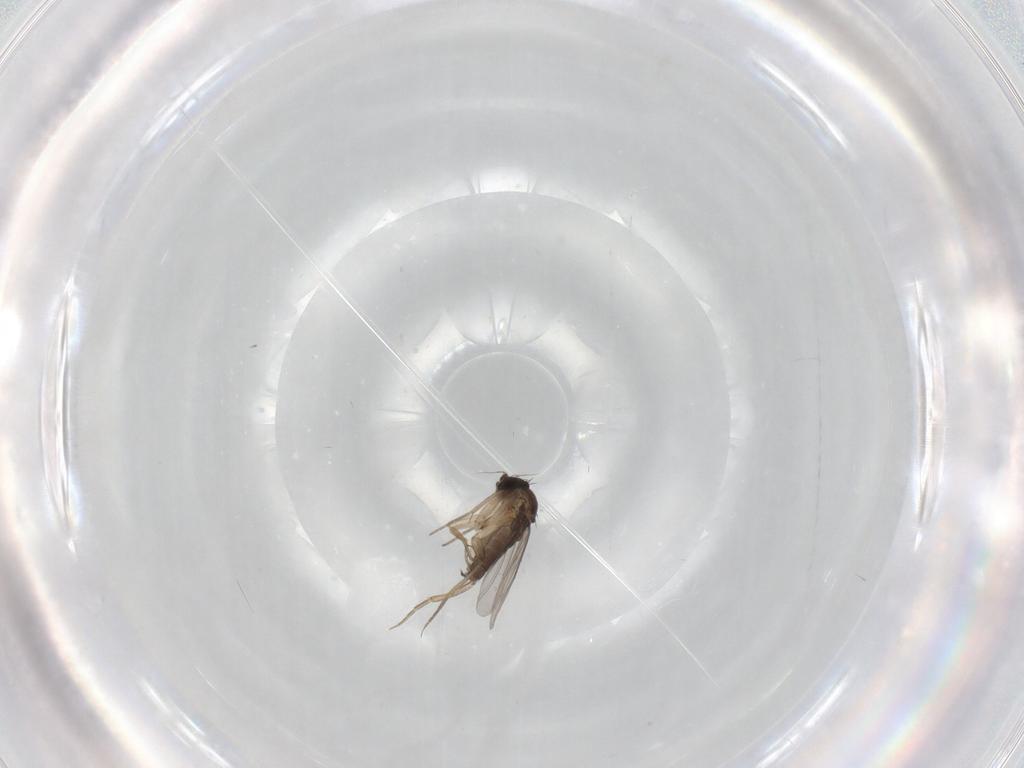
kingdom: Animalia
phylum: Arthropoda
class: Insecta
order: Diptera
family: Phoridae
